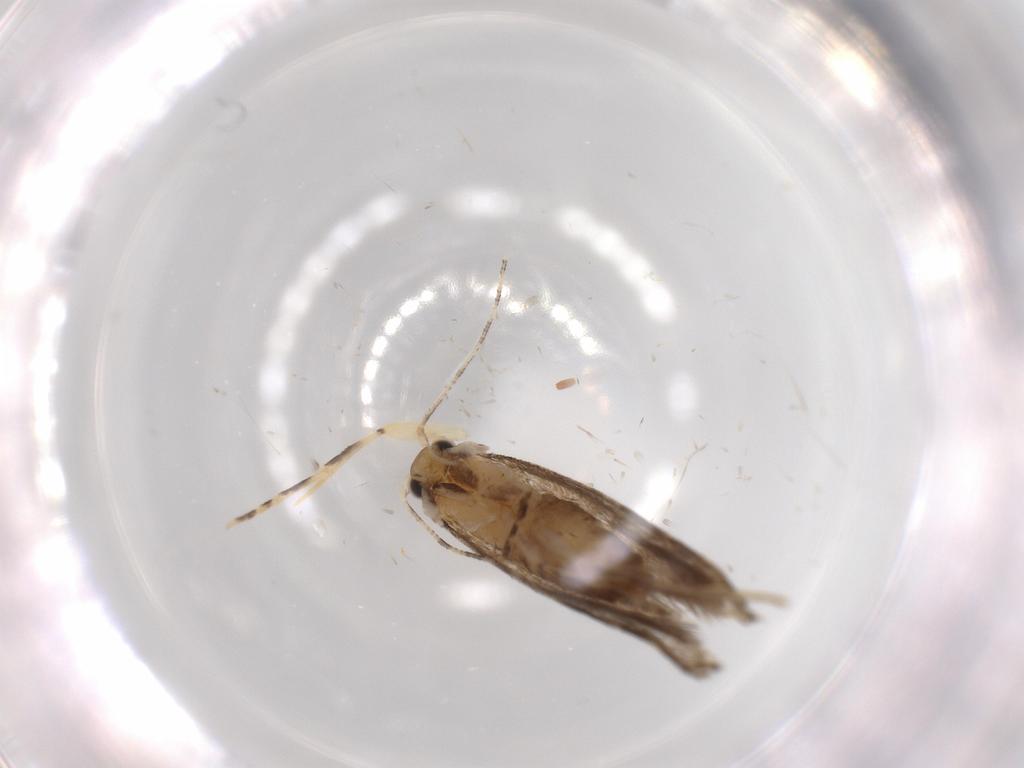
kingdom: Animalia
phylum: Arthropoda
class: Insecta
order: Lepidoptera
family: Tineidae
